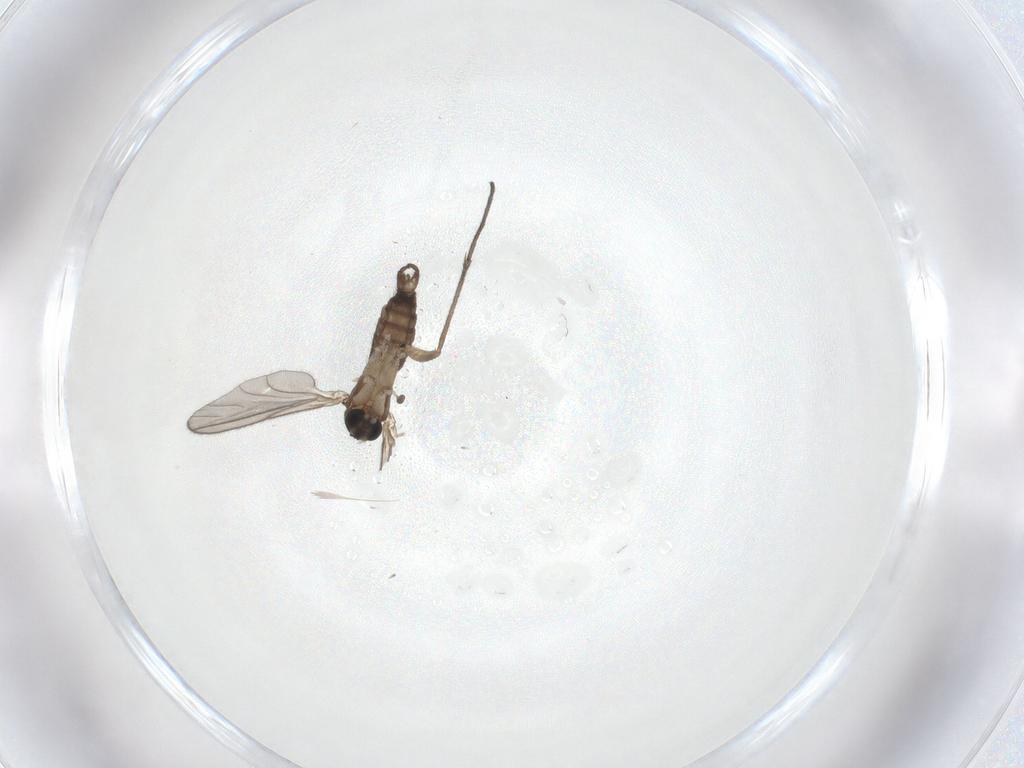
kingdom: Animalia
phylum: Arthropoda
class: Insecta
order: Diptera
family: Sciaridae
